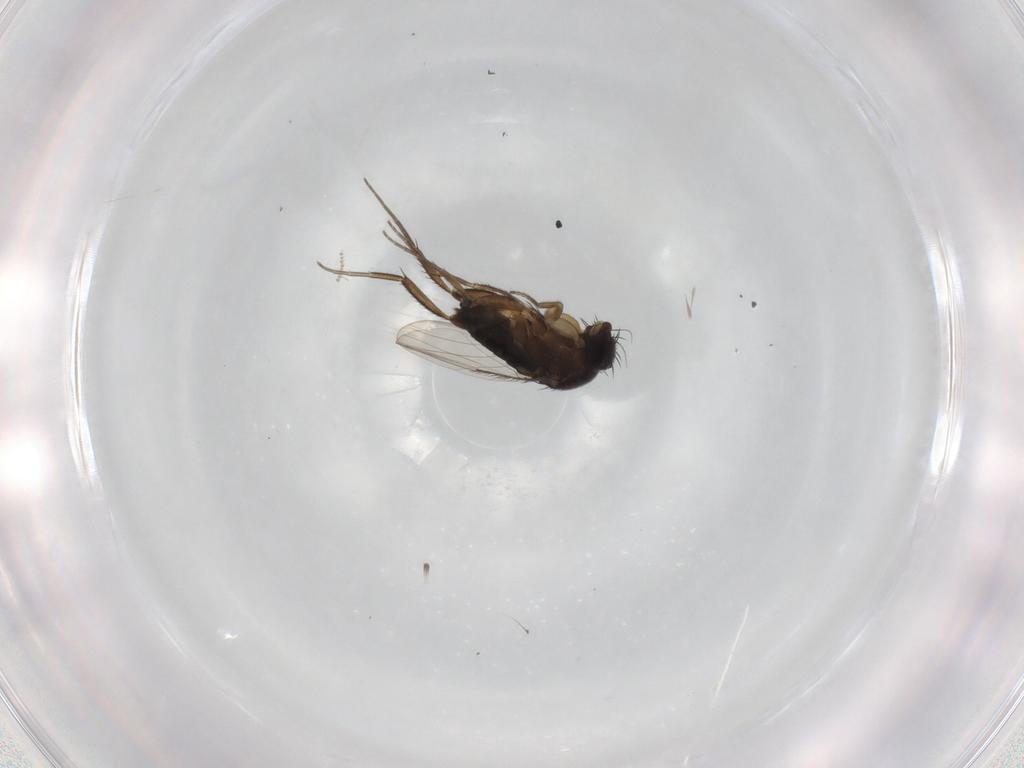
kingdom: Animalia
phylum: Arthropoda
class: Insecta
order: Diptera
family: Phoridae
